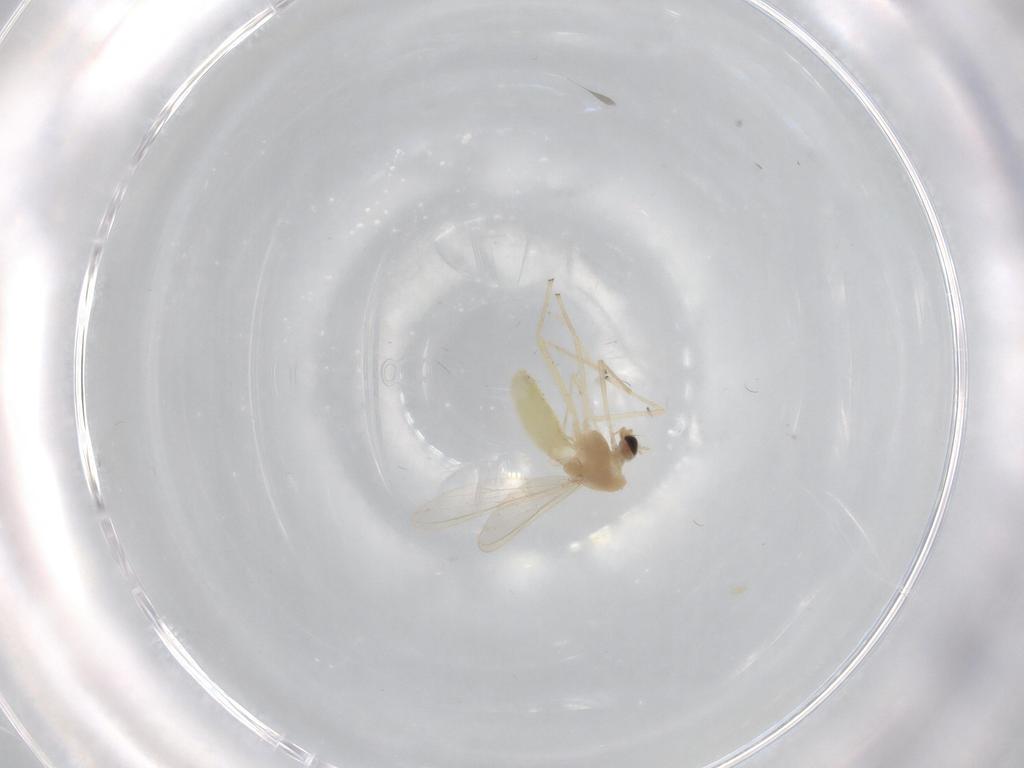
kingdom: Animalia
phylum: Arthropoda
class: Insecta
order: Diptera
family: Chironomidae
